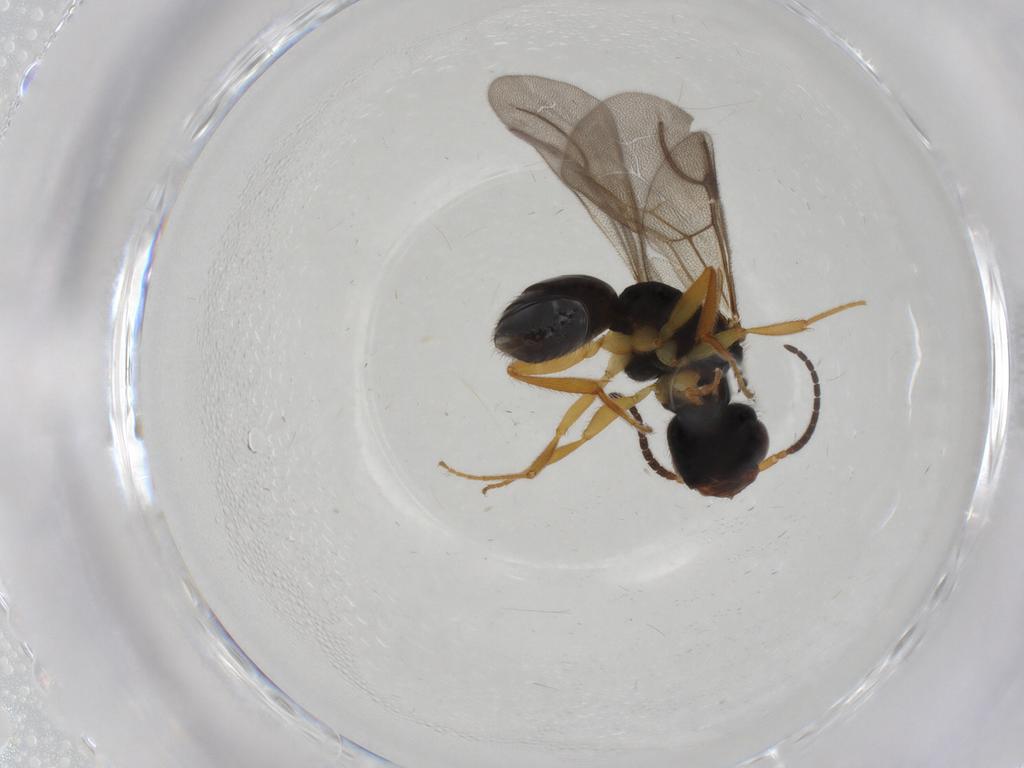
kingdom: Animalia
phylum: Arthropoda
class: Insecta
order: Hymenoptera
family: Bethylidae
